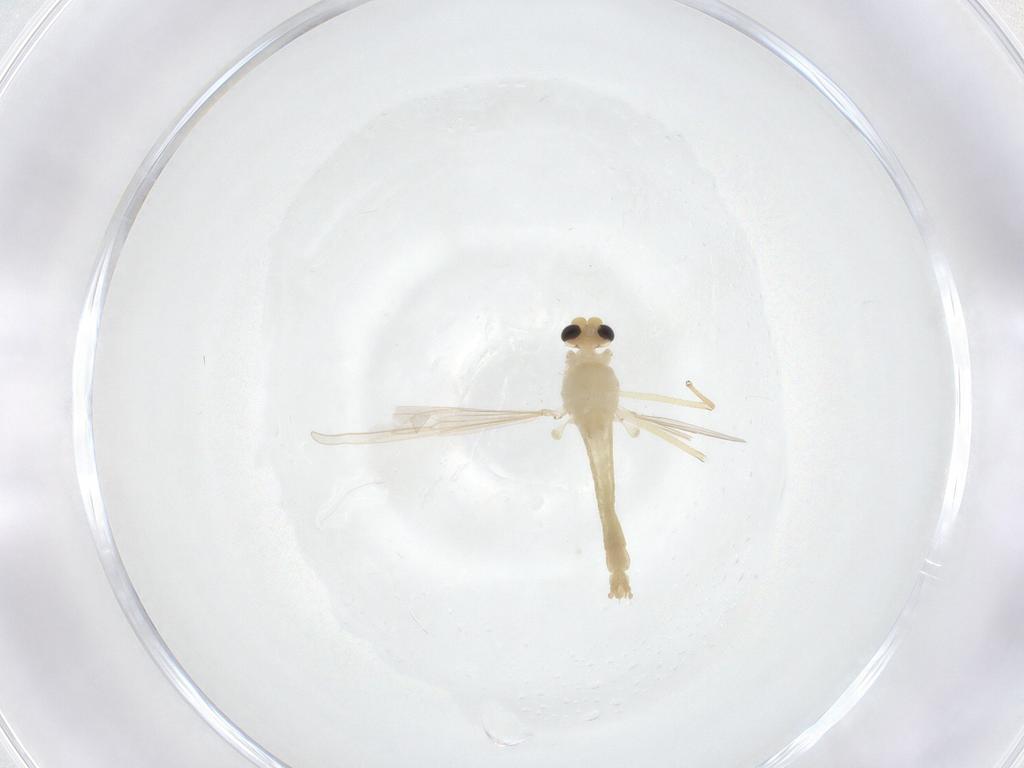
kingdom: Animalia
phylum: Arthropoda
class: Insecta
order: Diptera
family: Chironomidae
